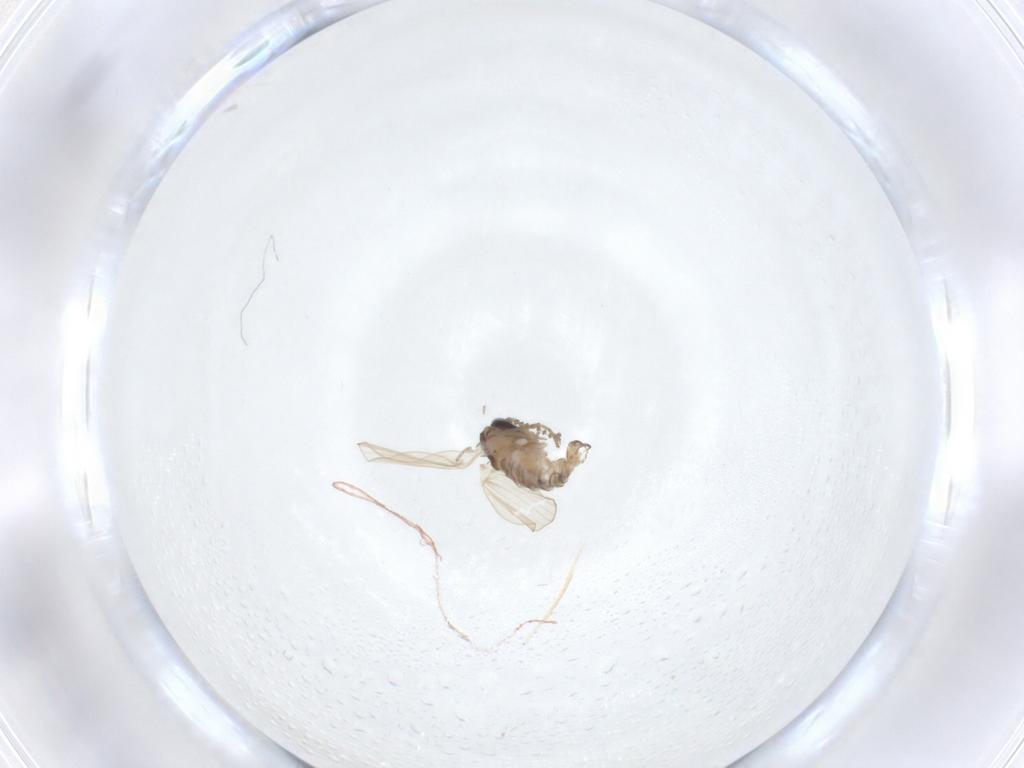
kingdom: Animalia
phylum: Arthropoda
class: Insecta
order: Diptera
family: Psychodidae
